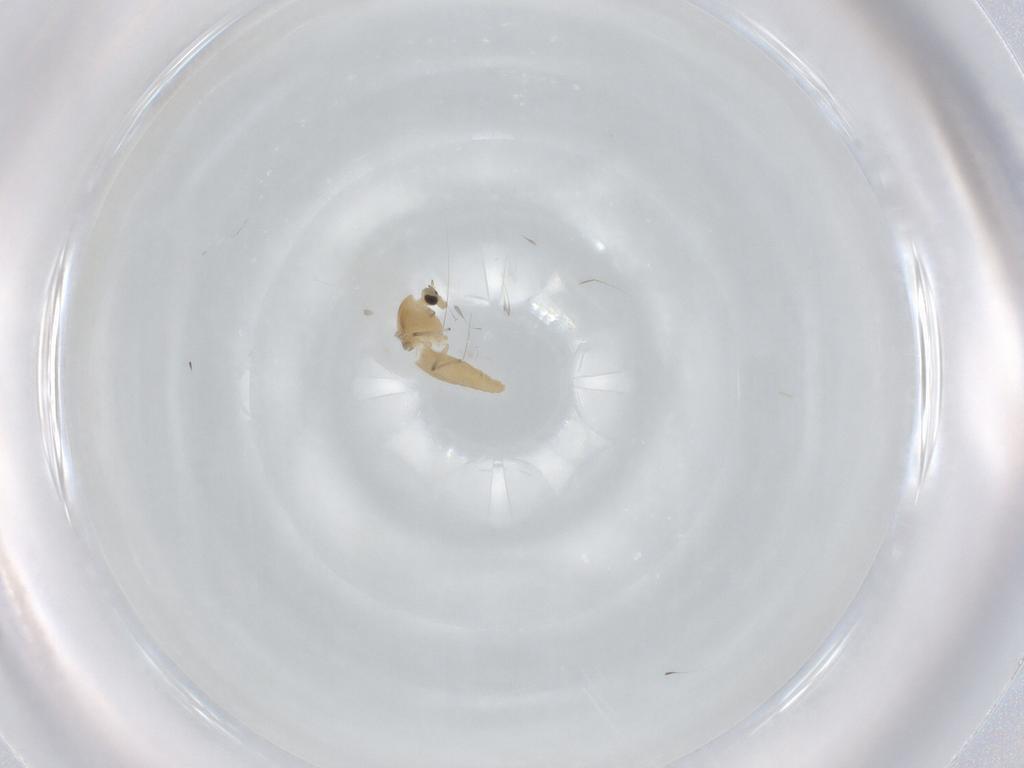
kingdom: Animalia
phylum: Arthropoda
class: Insecta
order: Diptera
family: Chironomidae
